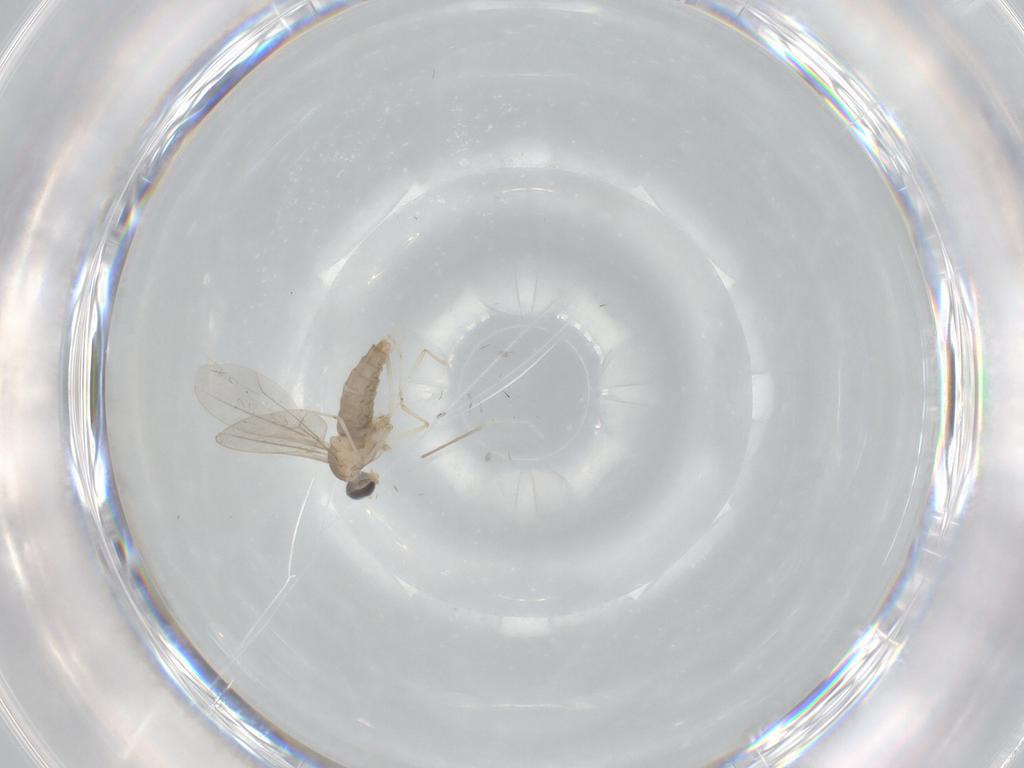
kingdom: Animalia
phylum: Arthropoda
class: Insecta
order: Diptera
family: Cecidomyiidae
